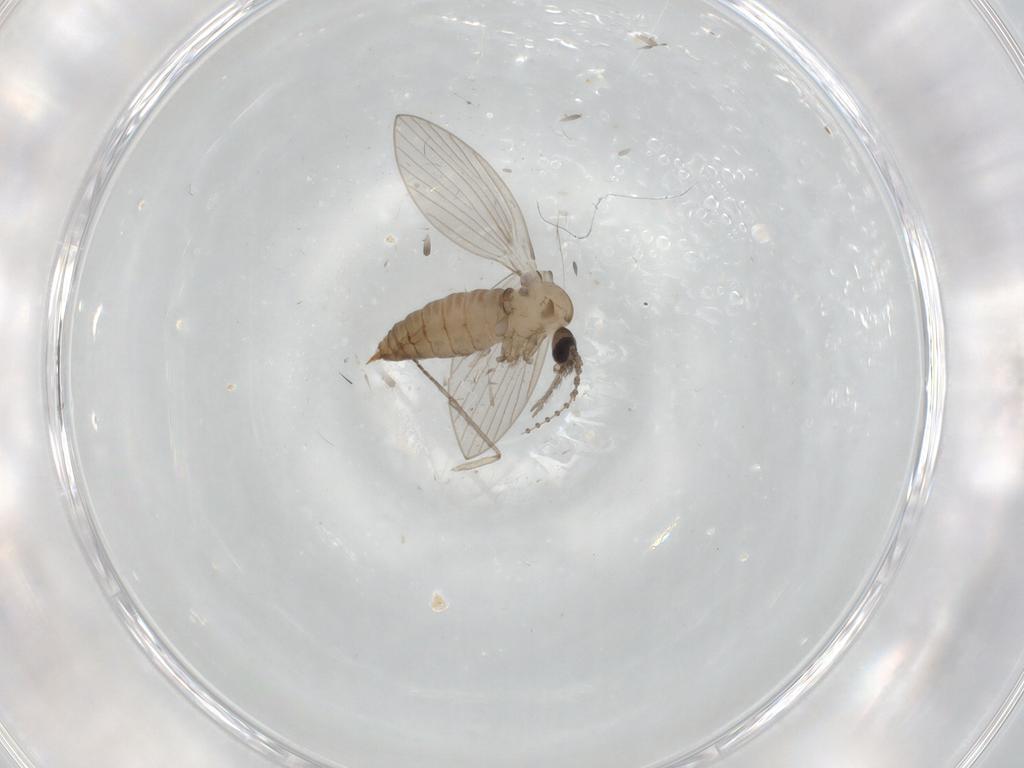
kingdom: Animalia
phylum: Arthropoda
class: Insecta
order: Diptera
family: Psychodidae
